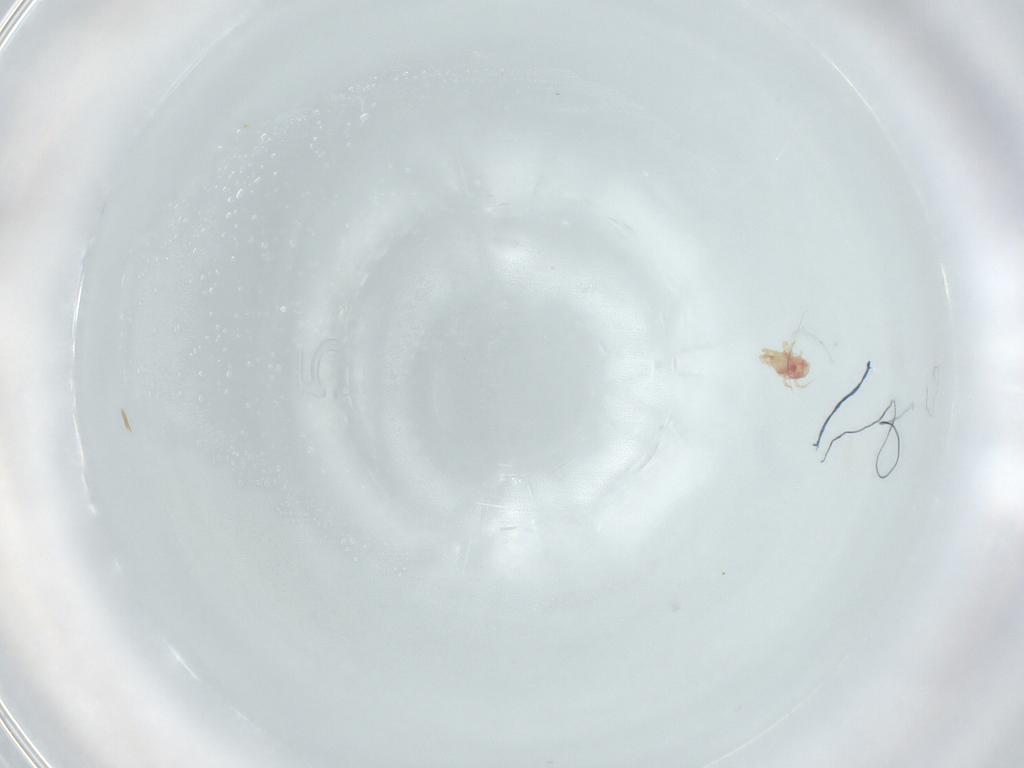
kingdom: Animalia
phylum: Arthropoda
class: Arachnida
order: Mesostigmata
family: Phytoseiidae
